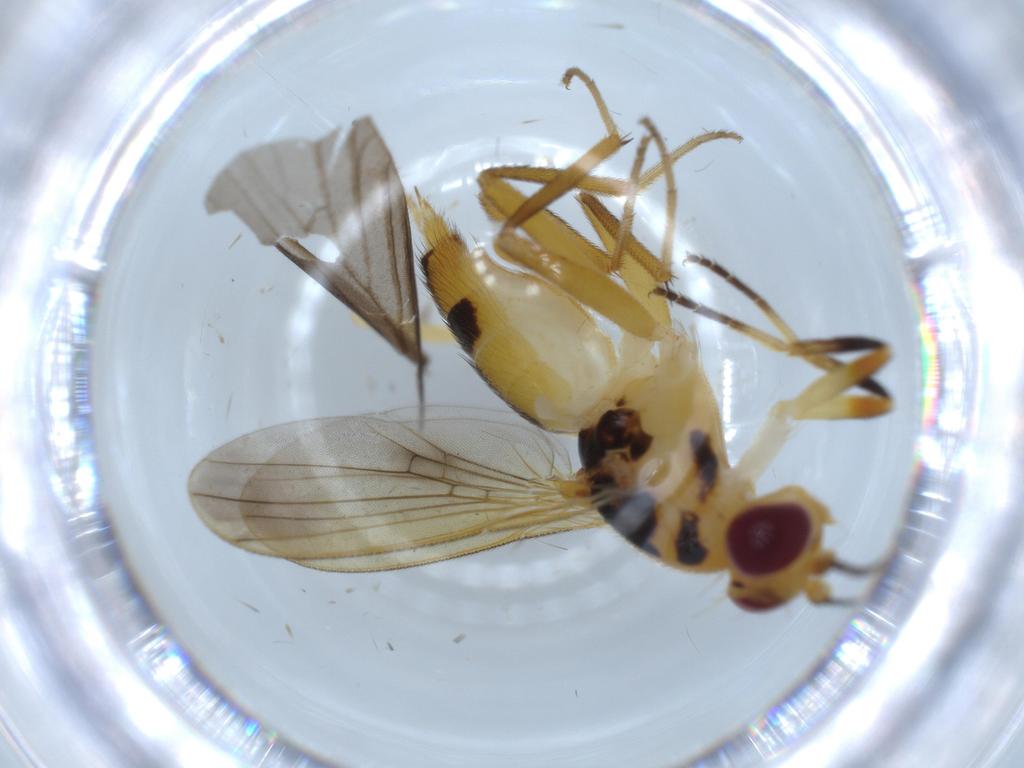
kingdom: Animalia
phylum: Arthropoda
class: Insecta
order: Diptera
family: Clusiidae
